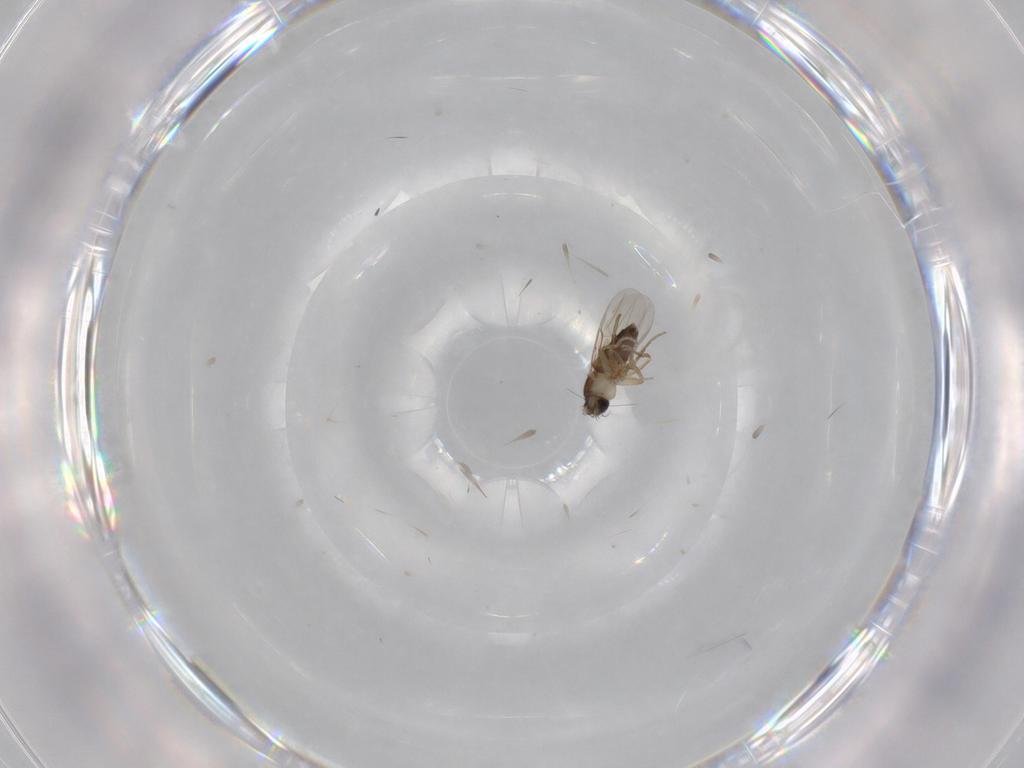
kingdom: Animalia
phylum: Arthropoda
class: Insecta
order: Diptera
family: Phoridae
